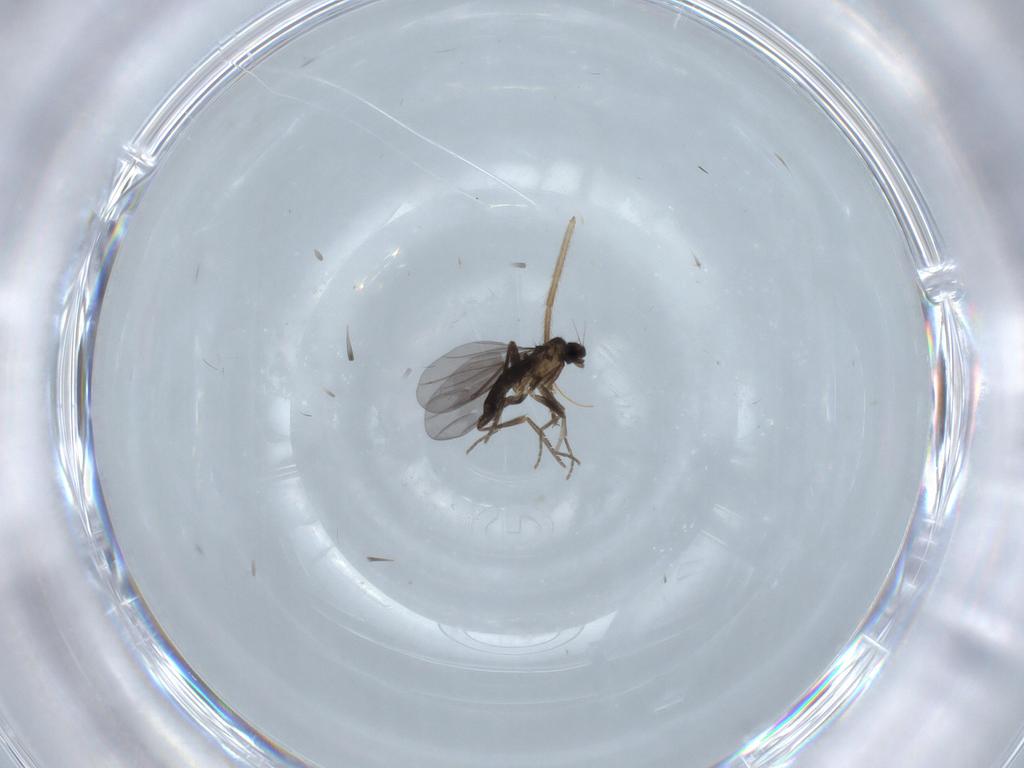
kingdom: Animalia
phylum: Arthropoda
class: Insecta
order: Diptera
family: Chironomidae
